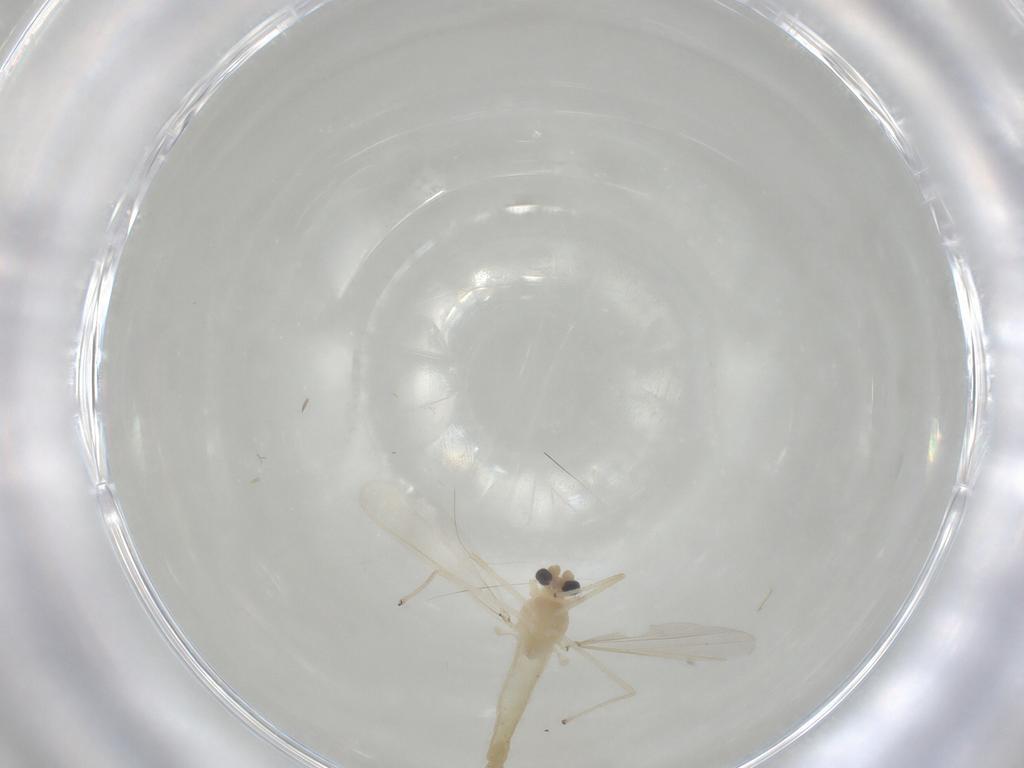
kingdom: Animalia
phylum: Arthropoda
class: Insecta
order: Diptera
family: Chironomidae
